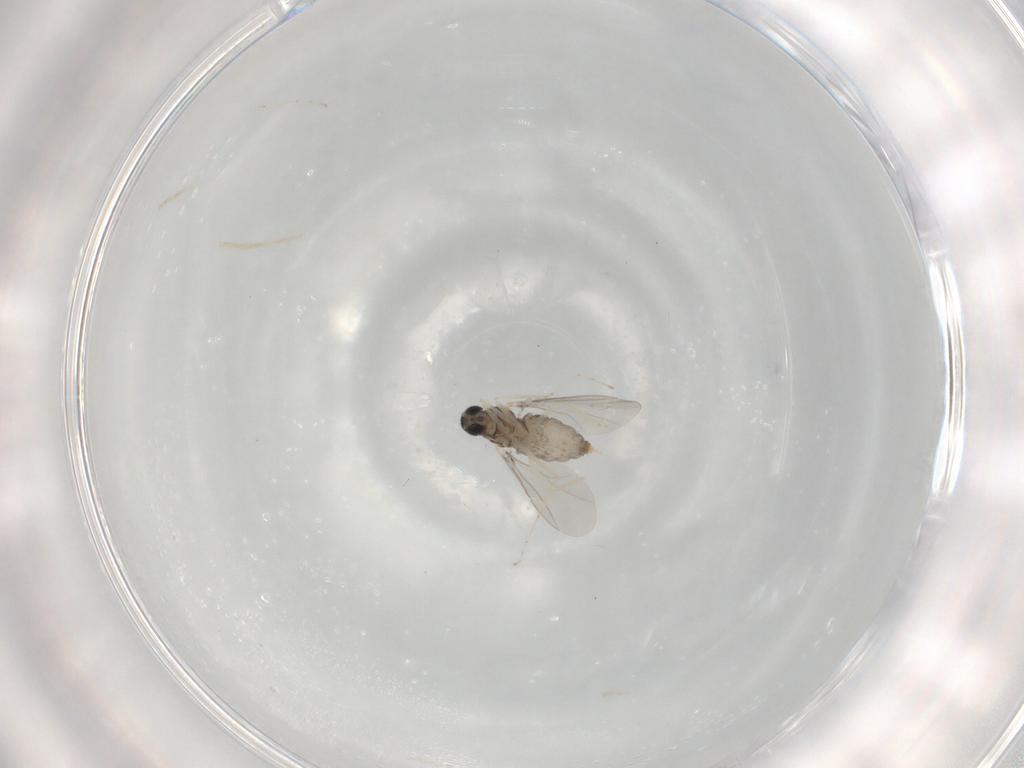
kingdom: Animalia
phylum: Arthropoda
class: Insecta
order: Diptera
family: Cecidomyiidae
